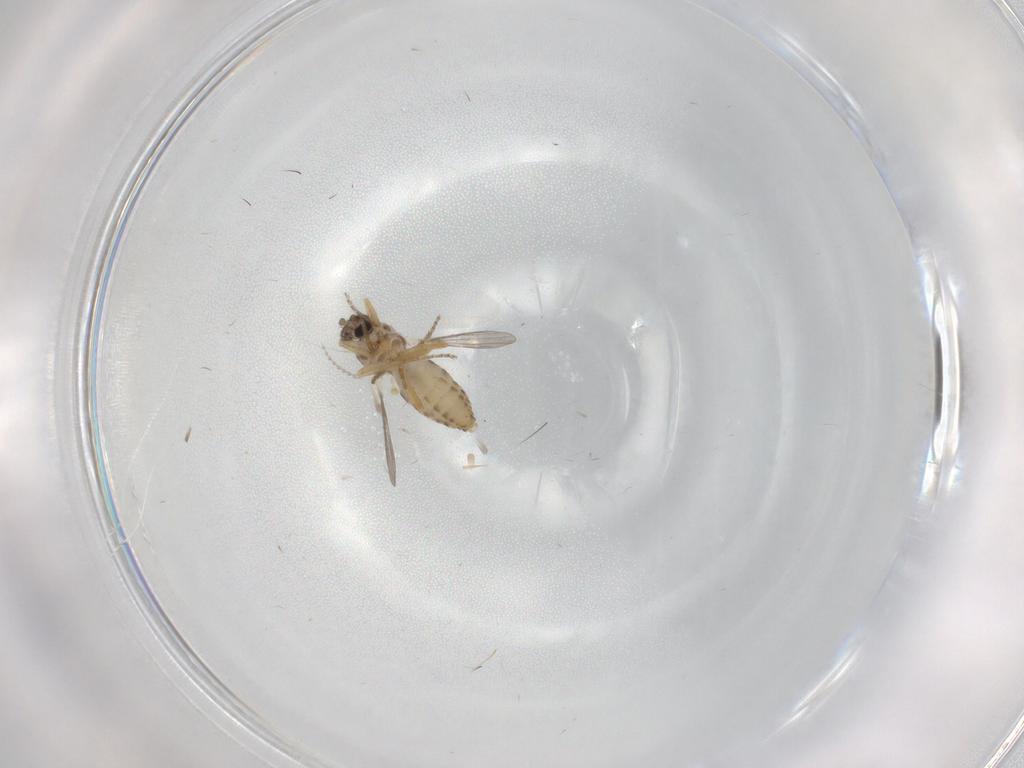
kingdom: Animalia
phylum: Arthropoda
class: Insecta
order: Diptera
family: Ceratopogonidae
